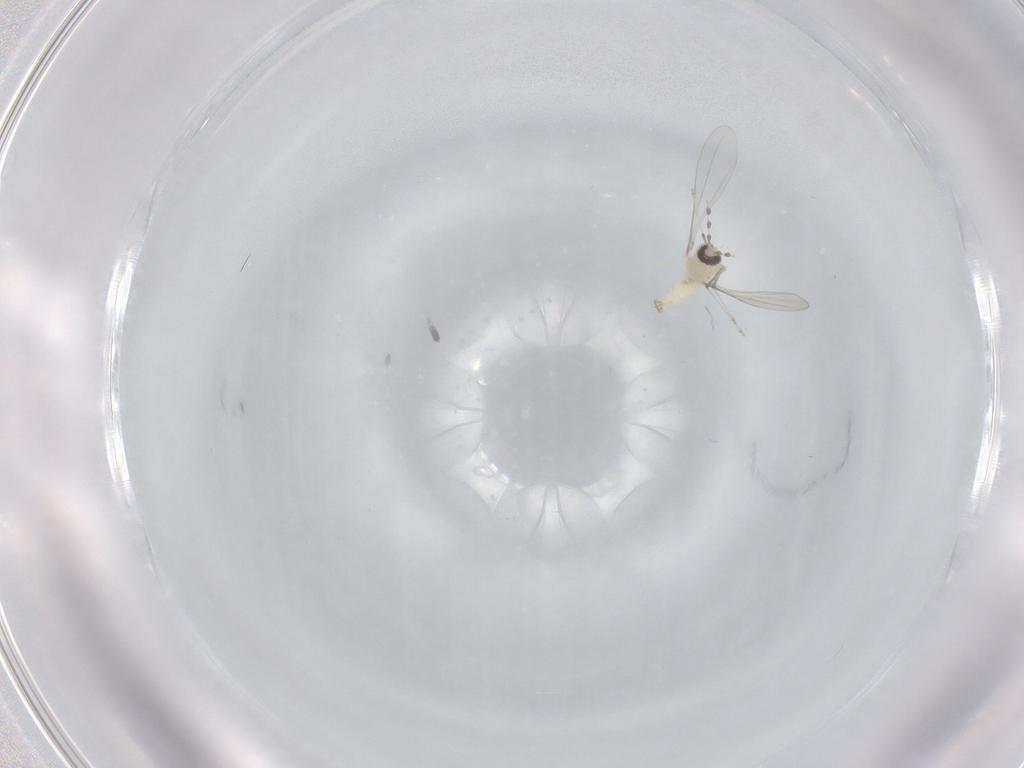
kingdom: Animalia
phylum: Arthropoda
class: Insecta
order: Diptera
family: Cecidomyiidae
